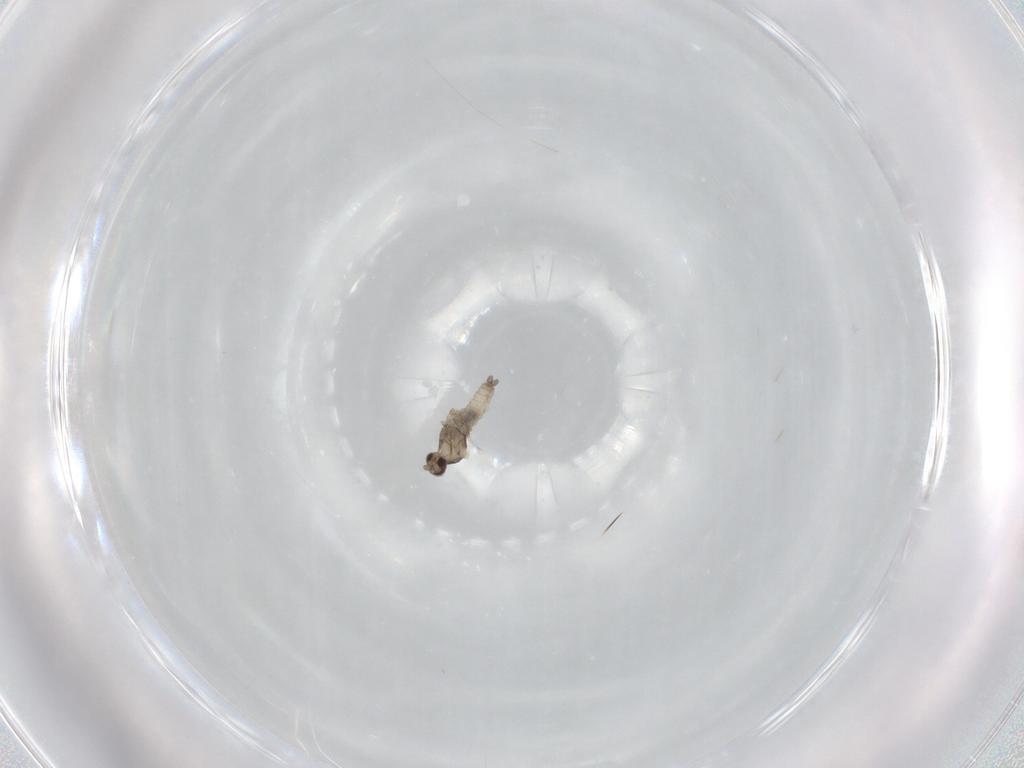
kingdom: Animalia
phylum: Arthropoda
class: Insecta
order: Diptera
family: Cecidomyiidae
